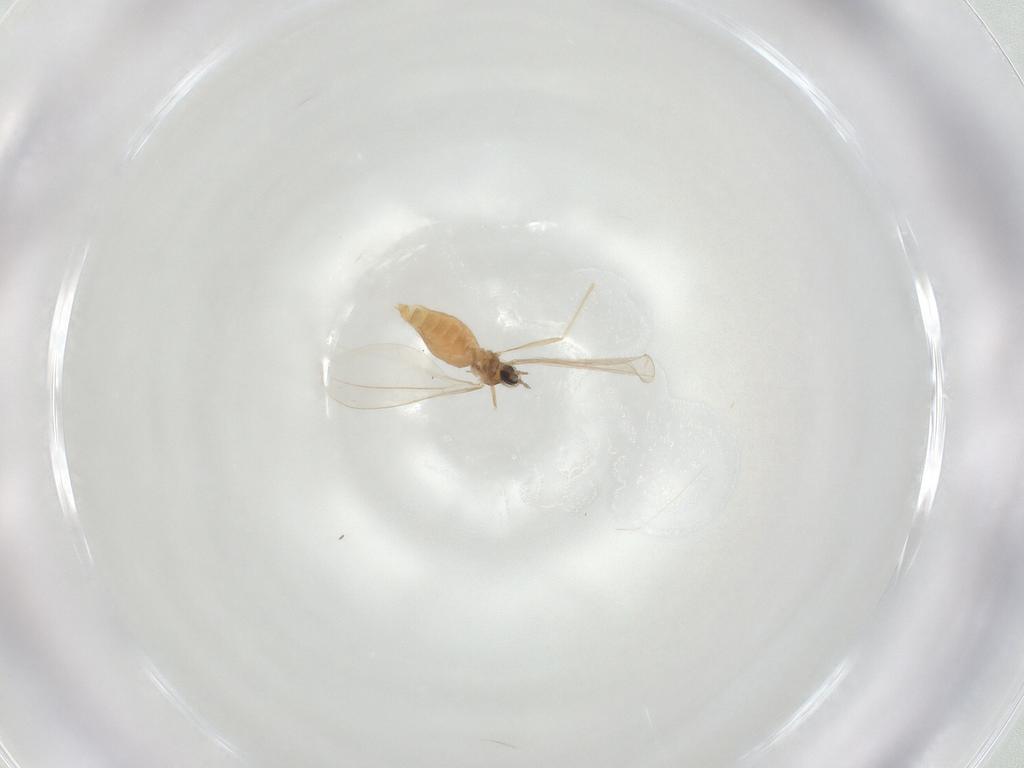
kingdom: Animalia
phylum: Arthropoda
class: Insecta
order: Diptera
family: Cecidomyiidae
